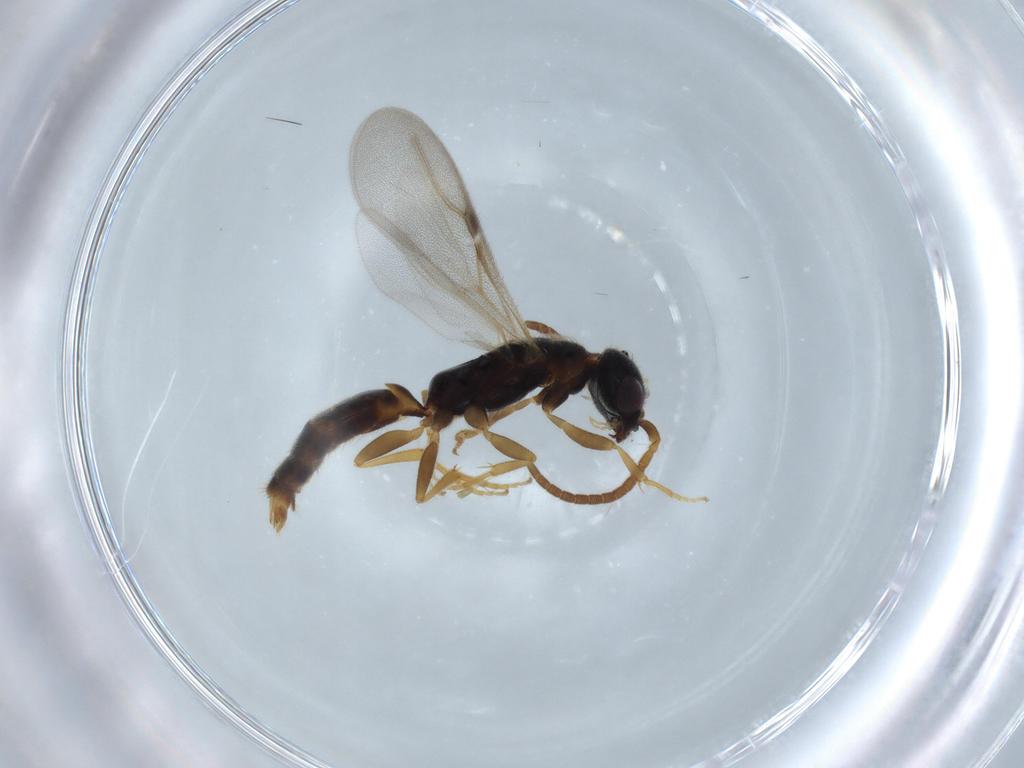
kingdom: Animalia
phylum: Arthropoda
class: Insecta
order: Hymenoptera
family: Bethylidae
